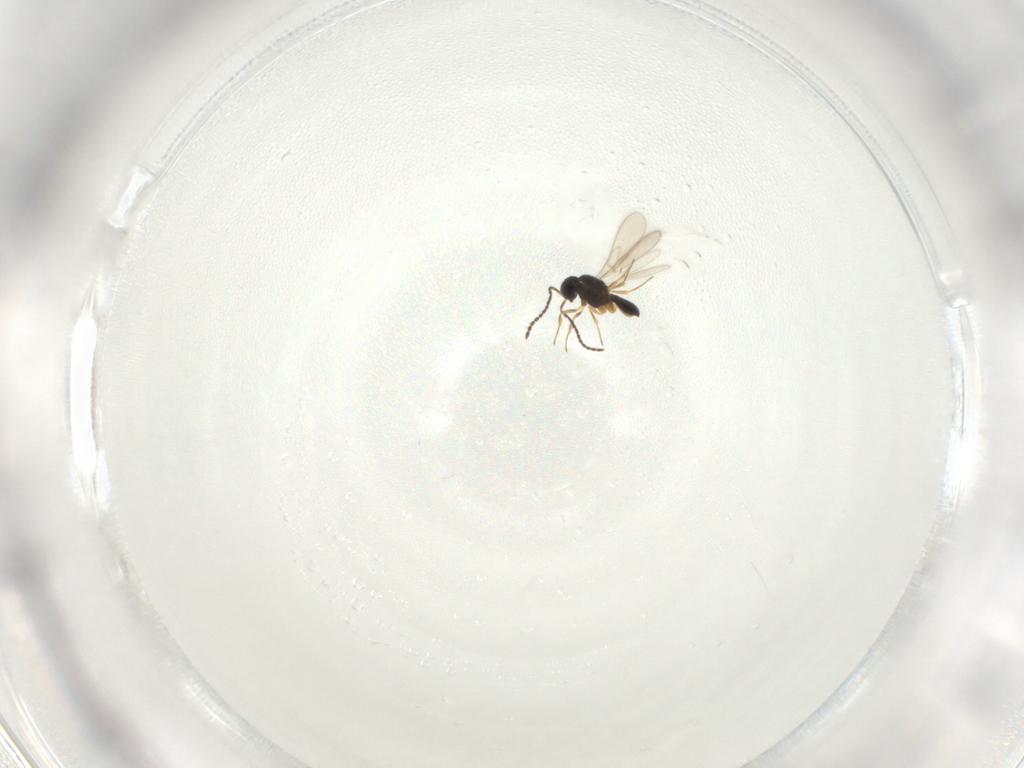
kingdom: Animalia
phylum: Arthropoda
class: Insecta
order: Hymenoptera
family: Scelionidae
